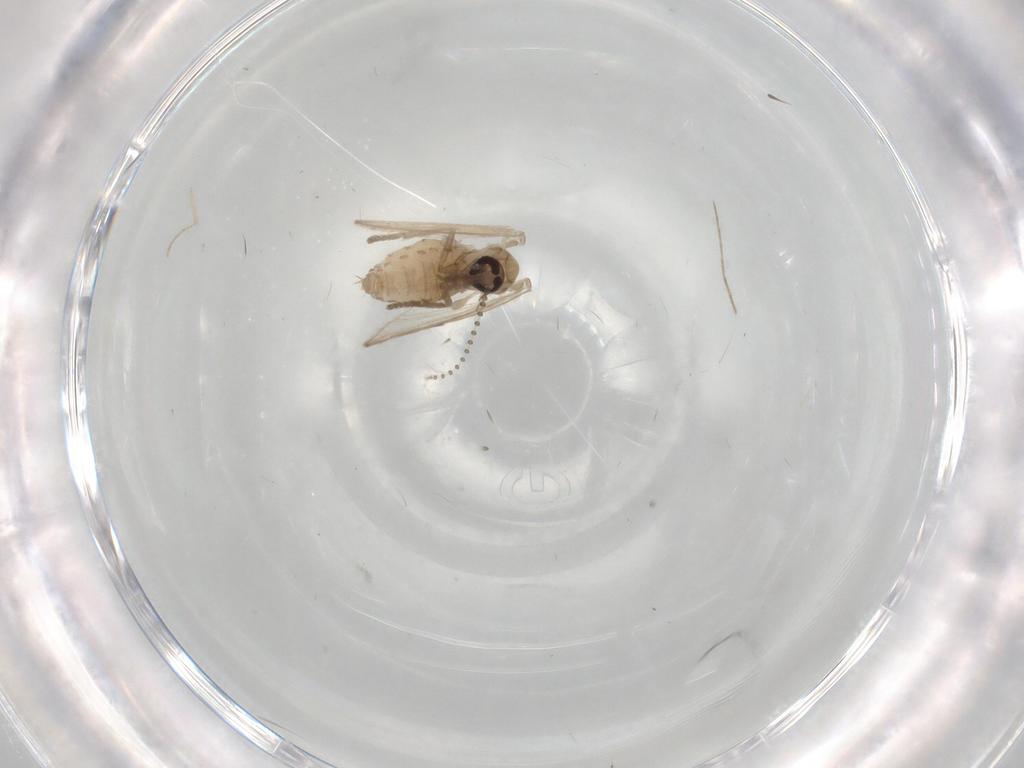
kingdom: Animalia
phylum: Arthropoda
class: Insecta
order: Diptera
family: Psychodidae
